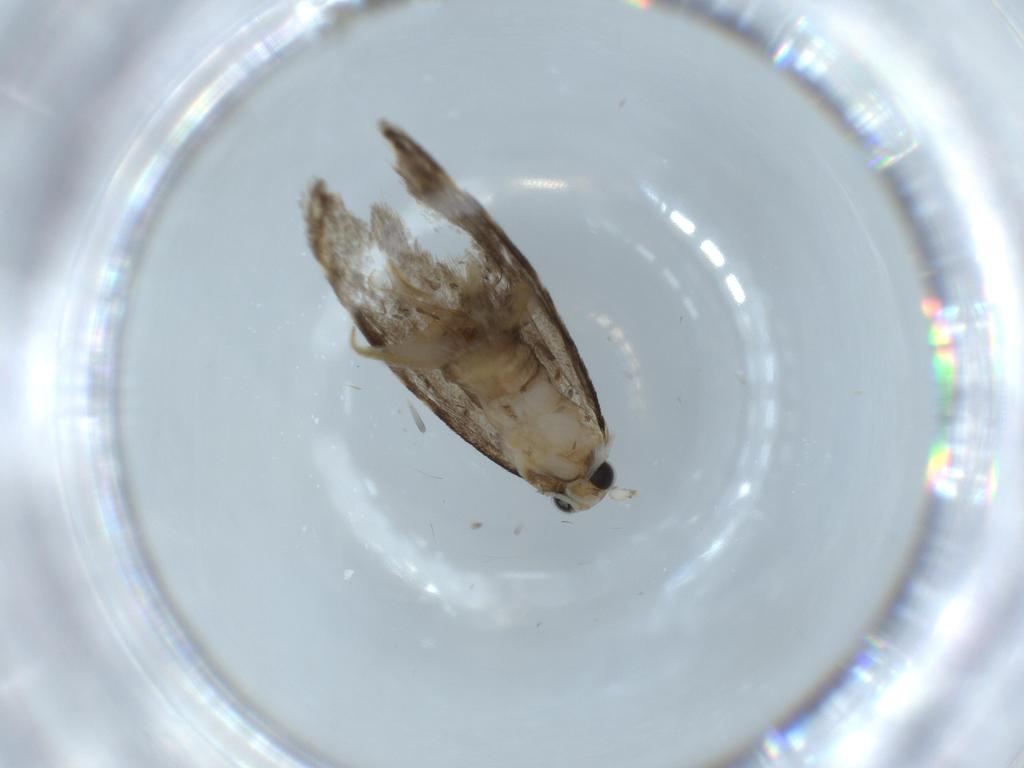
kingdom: Animalia
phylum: Arthropoda
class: Insecta
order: Lepidoptera
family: Tineidae
